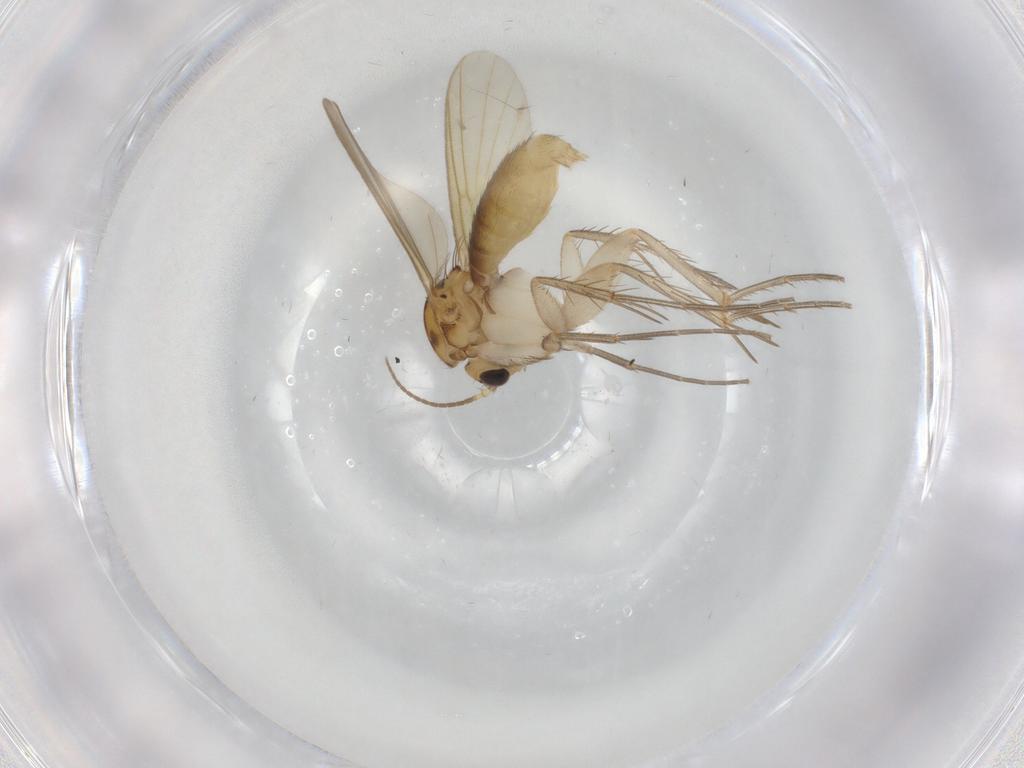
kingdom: Animalia
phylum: Arthropoda
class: Insecta
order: Diptera
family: Mycetophilidae
